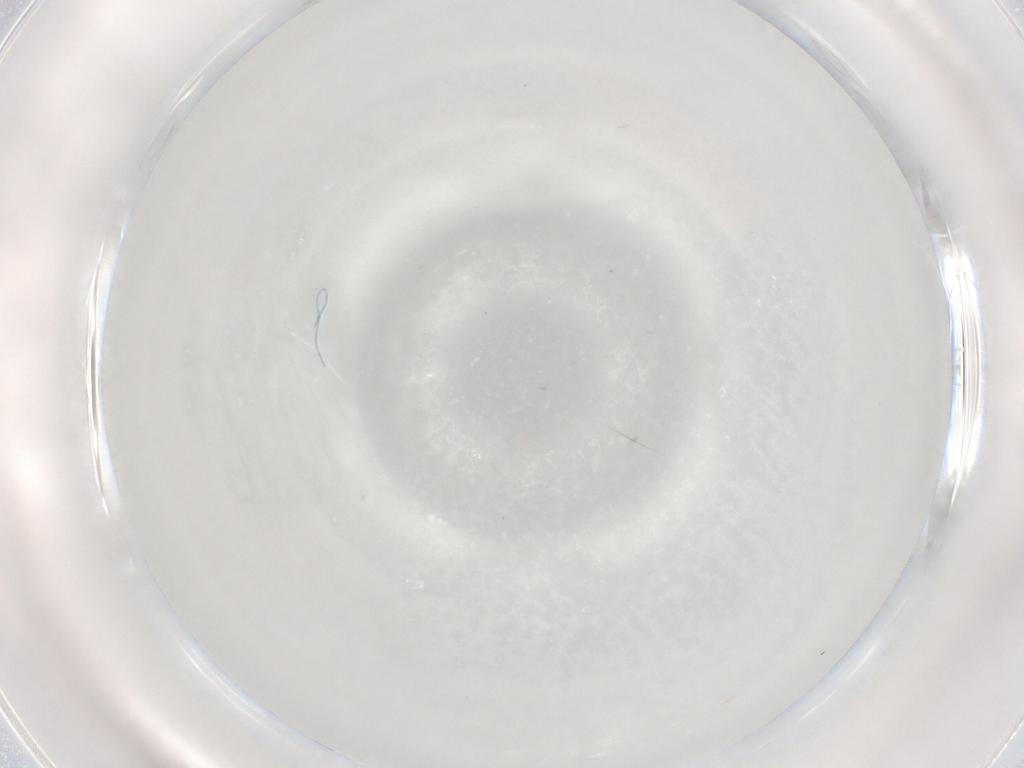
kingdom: Animalia
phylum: Arthropoda
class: Insecta
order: Diptera
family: Cecidomyiidae
